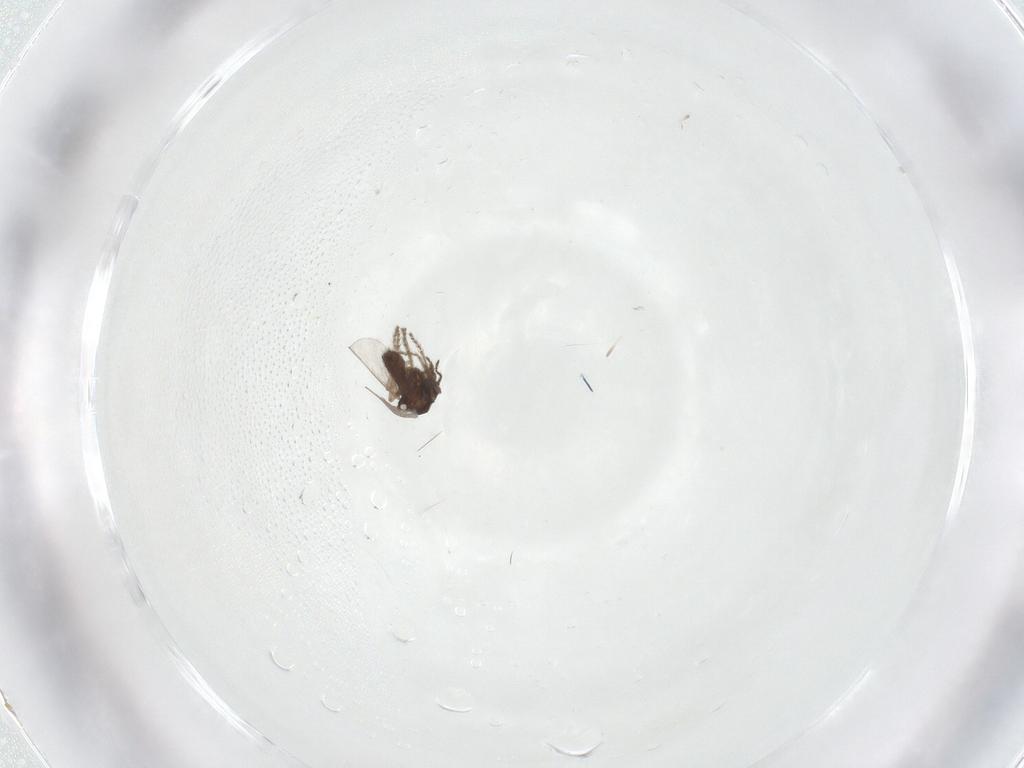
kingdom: Animalia
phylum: Arthropoda
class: Insecta
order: Diptera
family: Ceratopogonidae
